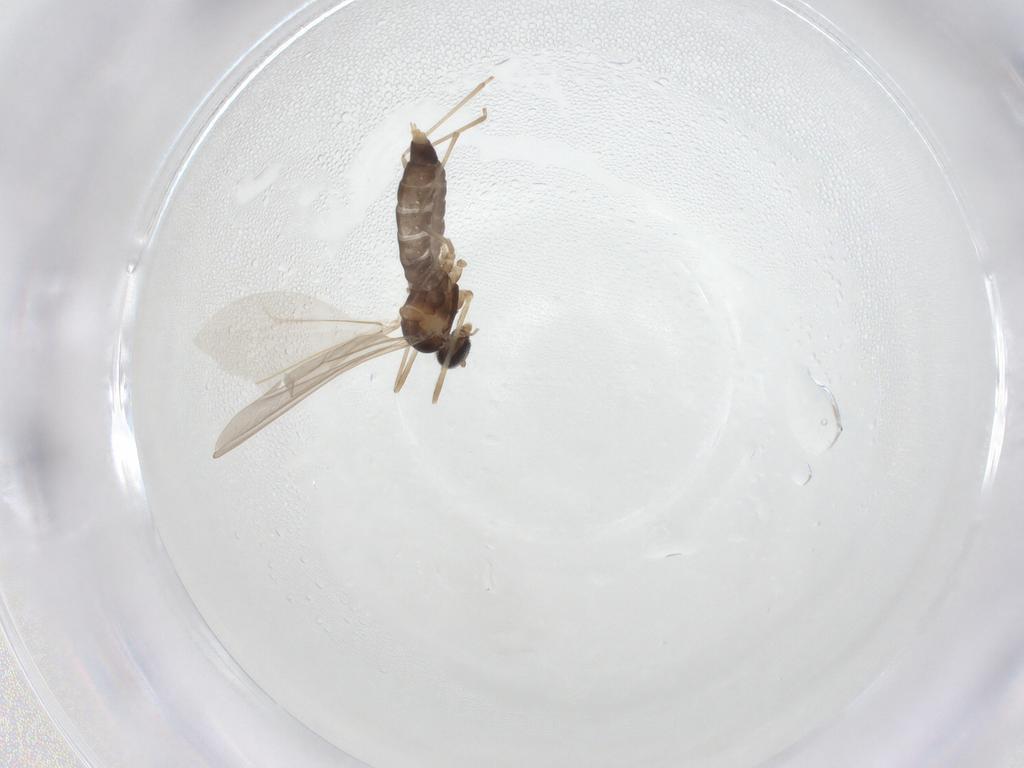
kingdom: Animalia
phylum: Arthropoda
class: Insecta
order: Diptera
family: Cecidomyiidae
